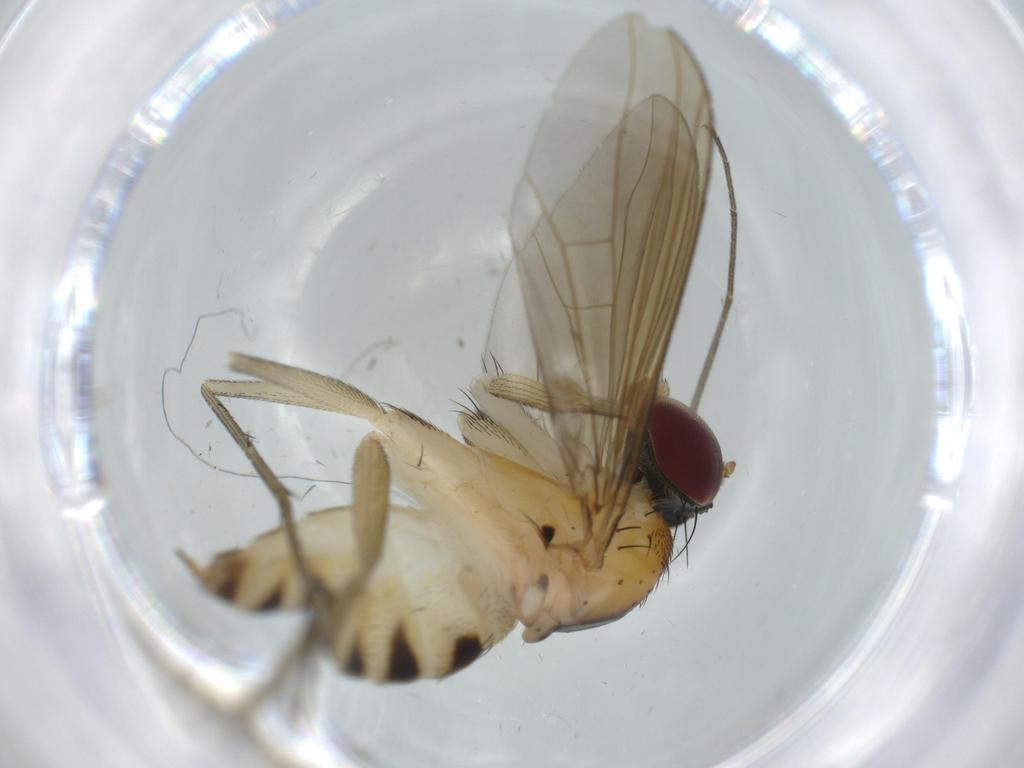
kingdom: Animalia
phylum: Arthropoda
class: Insecta
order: Diptera
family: Dolichopodidae
